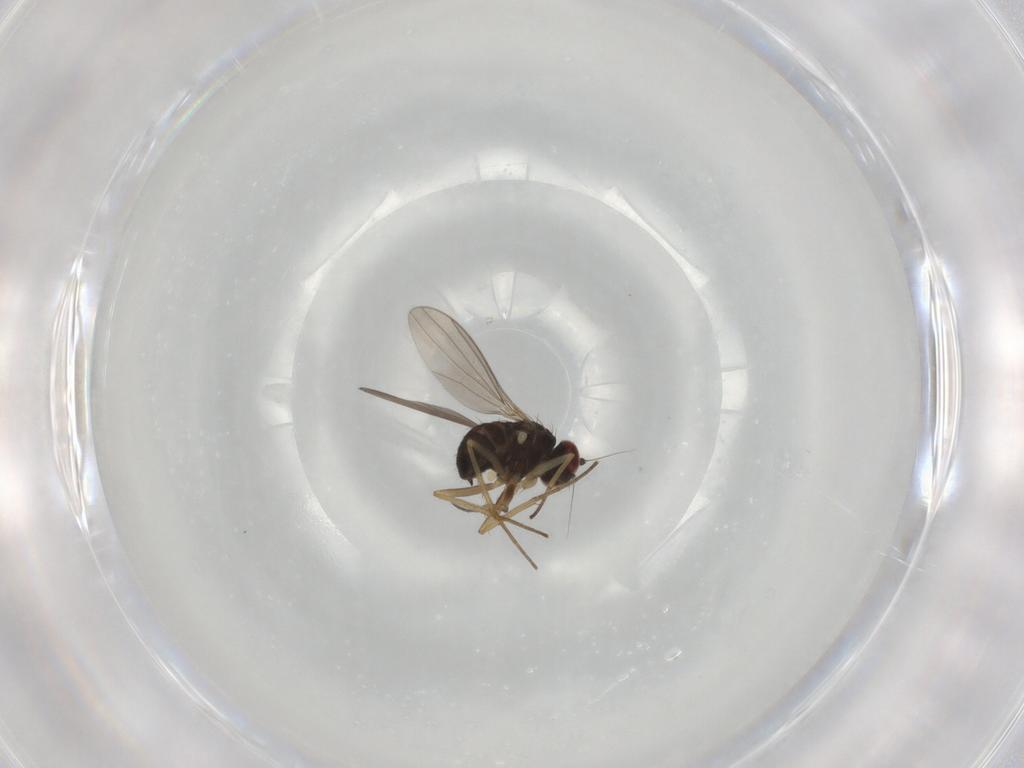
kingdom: Animalia
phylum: Arthropoda
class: Insecta
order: Diptera
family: Dolichopodidae
